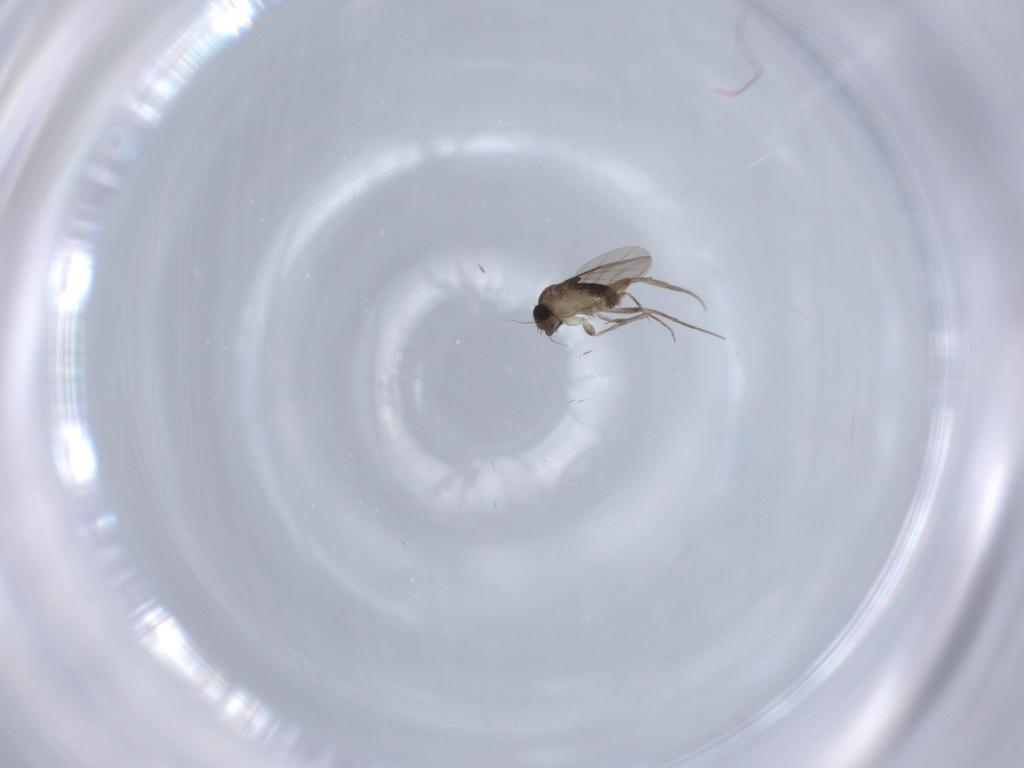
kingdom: Animalia
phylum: Arthropoda
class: Insecta
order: Diptera
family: Phoridae
